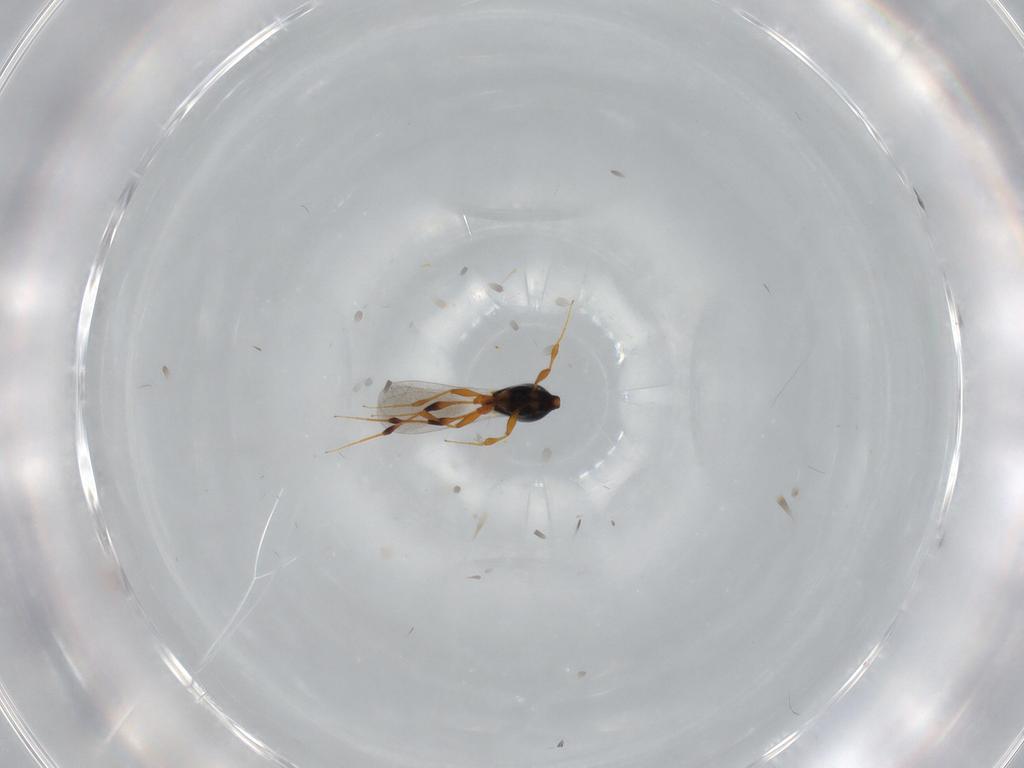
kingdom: Animalia
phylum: Arthropoda
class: Insecta
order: Hymenoptera
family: Platygastridae
